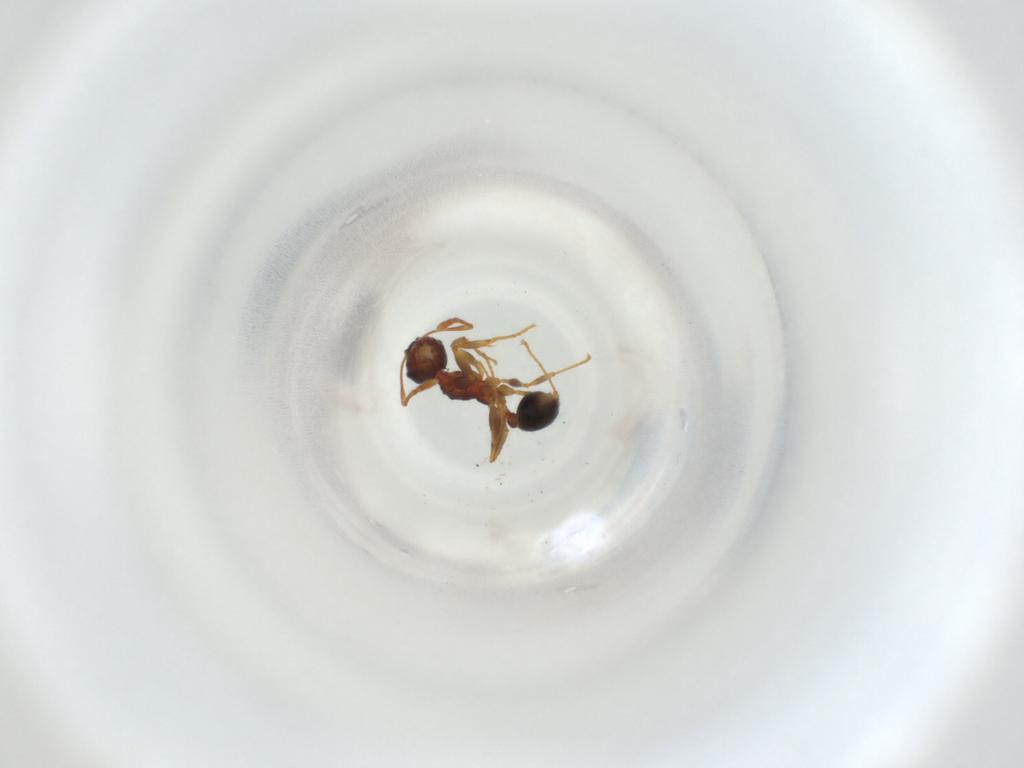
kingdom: Animalia
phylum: Arthropoda
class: Insecta
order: Hymenoptera
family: Formicidae
